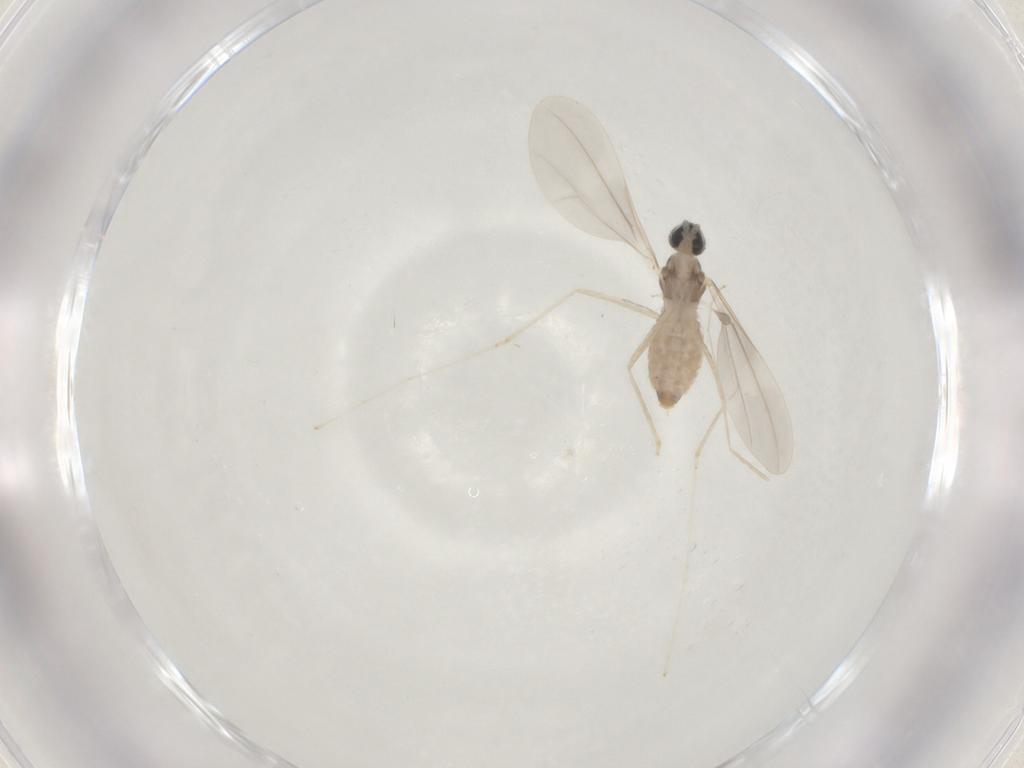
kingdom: Animalia
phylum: Arthropoda
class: Insecta
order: Diptera
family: Cecidomyiidae
